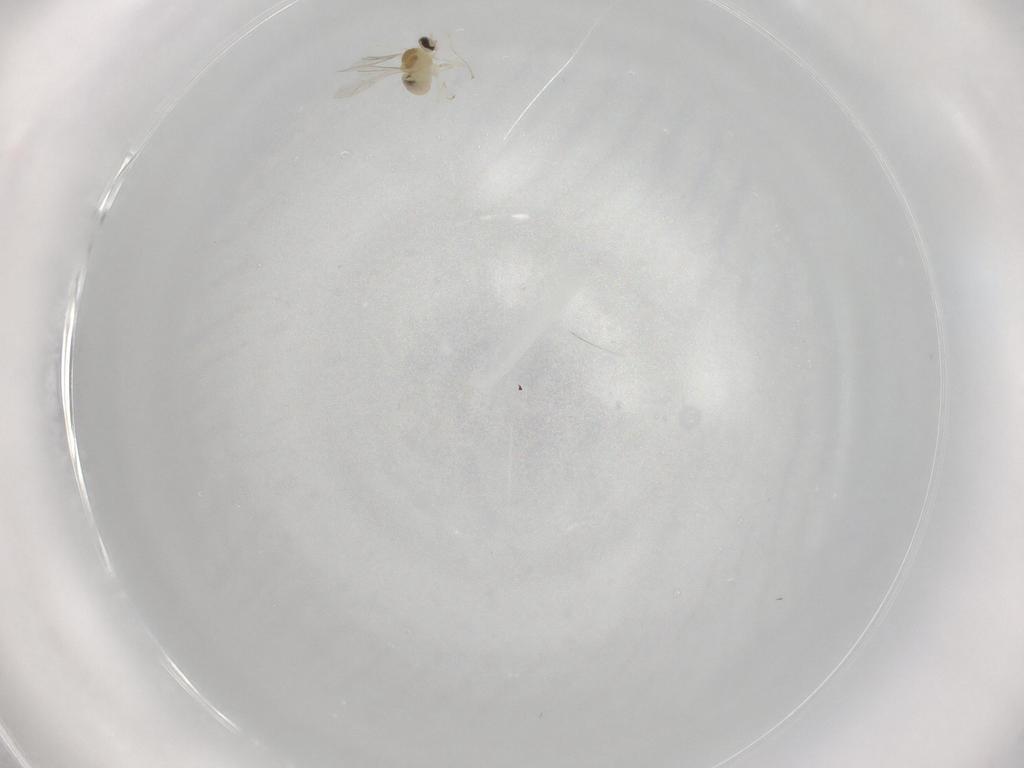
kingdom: Animalia
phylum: Arthropoda
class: Insecta
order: Diptera
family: Cecidomyiidae
